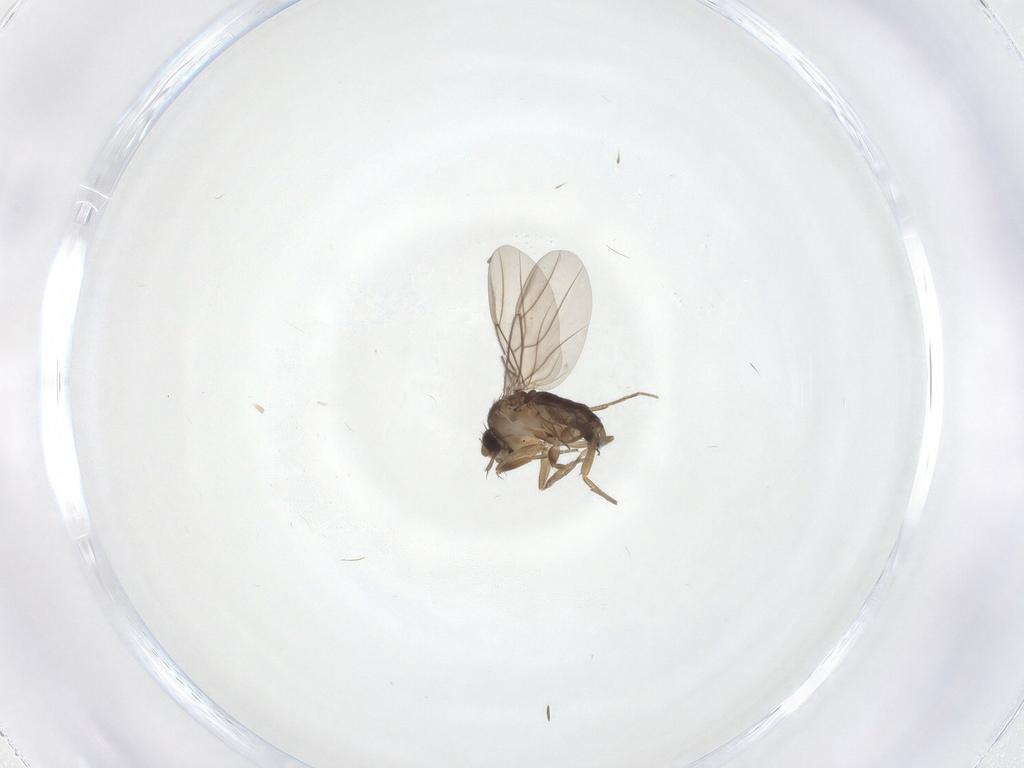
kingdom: Animalia
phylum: Arthropoda
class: Insecta
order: Diptera
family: Phoridae
